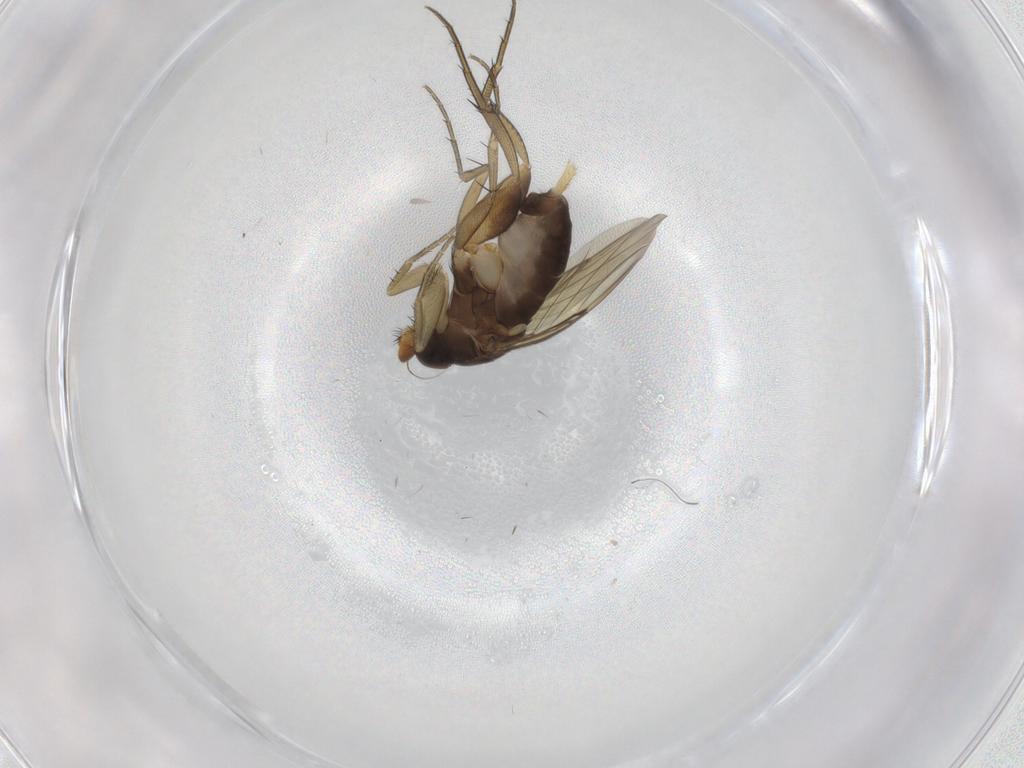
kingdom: Animalia
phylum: Arthropoda
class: Insecta
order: Diptera
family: Phoridae
